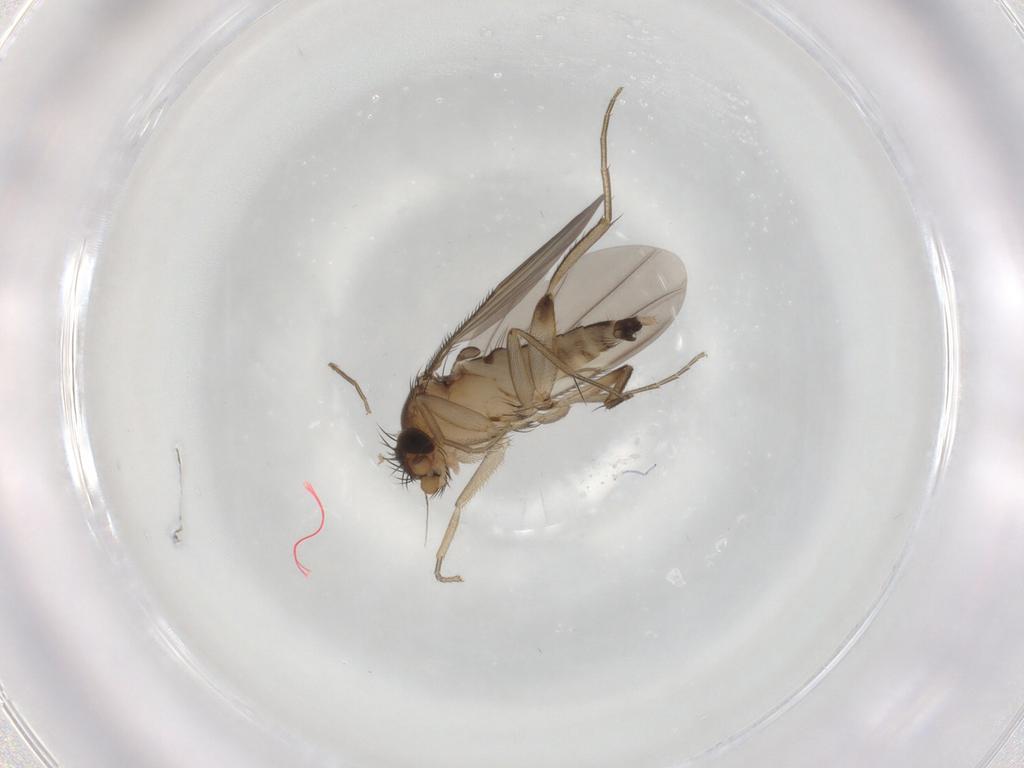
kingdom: Animalia
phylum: Arthropoda
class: Insecta
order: Diptera
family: Phoridae
